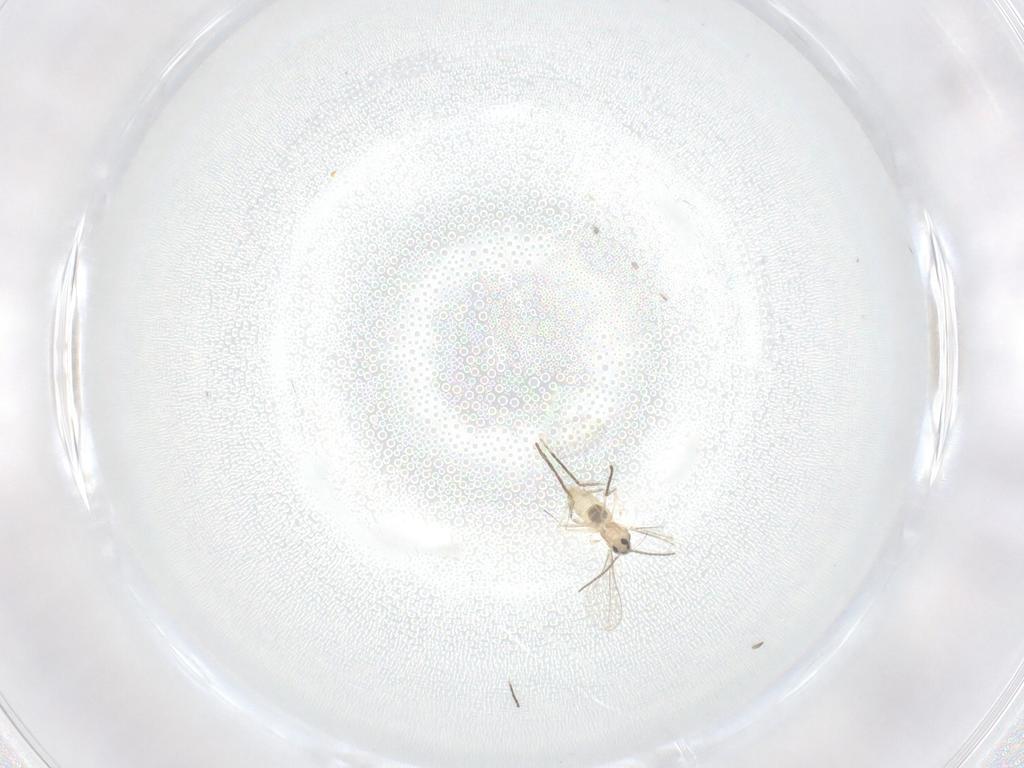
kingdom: Animalia
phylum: Arthropoda
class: Insecta
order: Diptera
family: Cecidomyiidae
